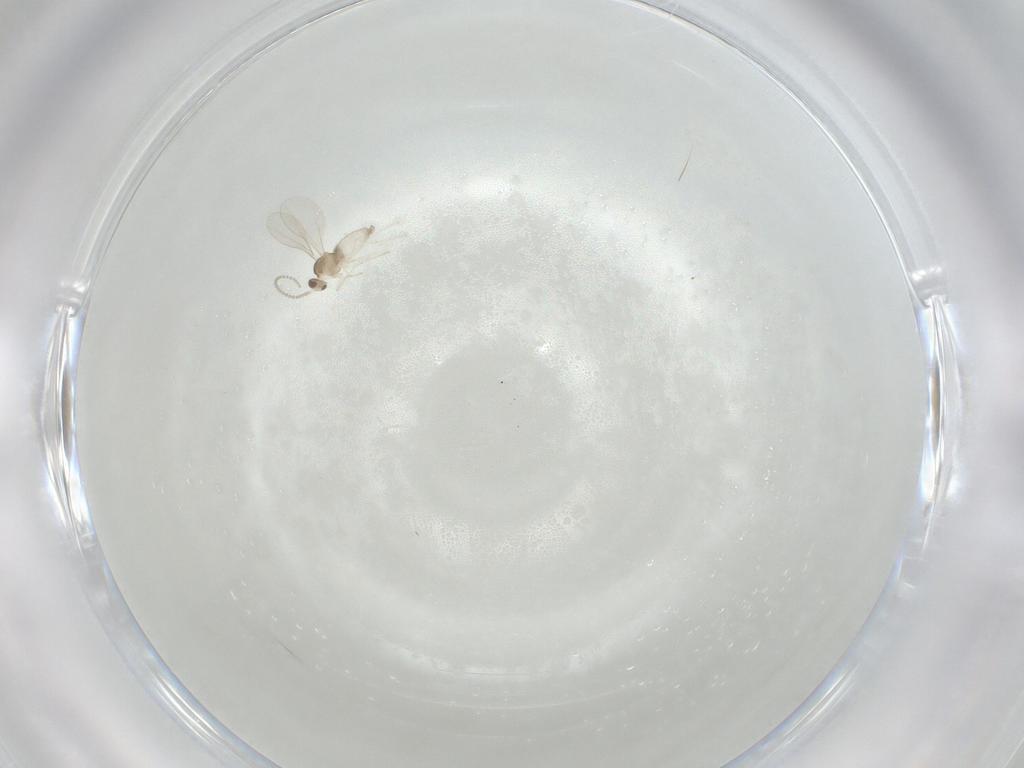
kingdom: Animalia
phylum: Arthropoda
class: Insecta
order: Diptera
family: Cecidomyiidae
